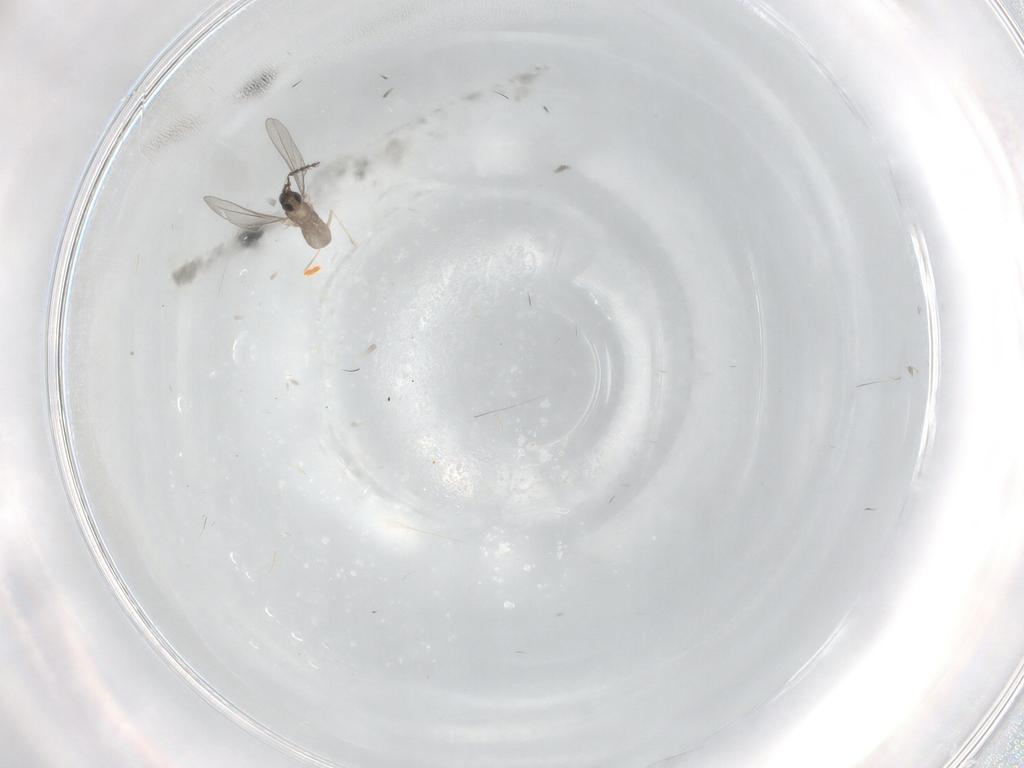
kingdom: Animalia
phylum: Arthropoda
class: Insecta
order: Diptera
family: Cecidomyiidae
